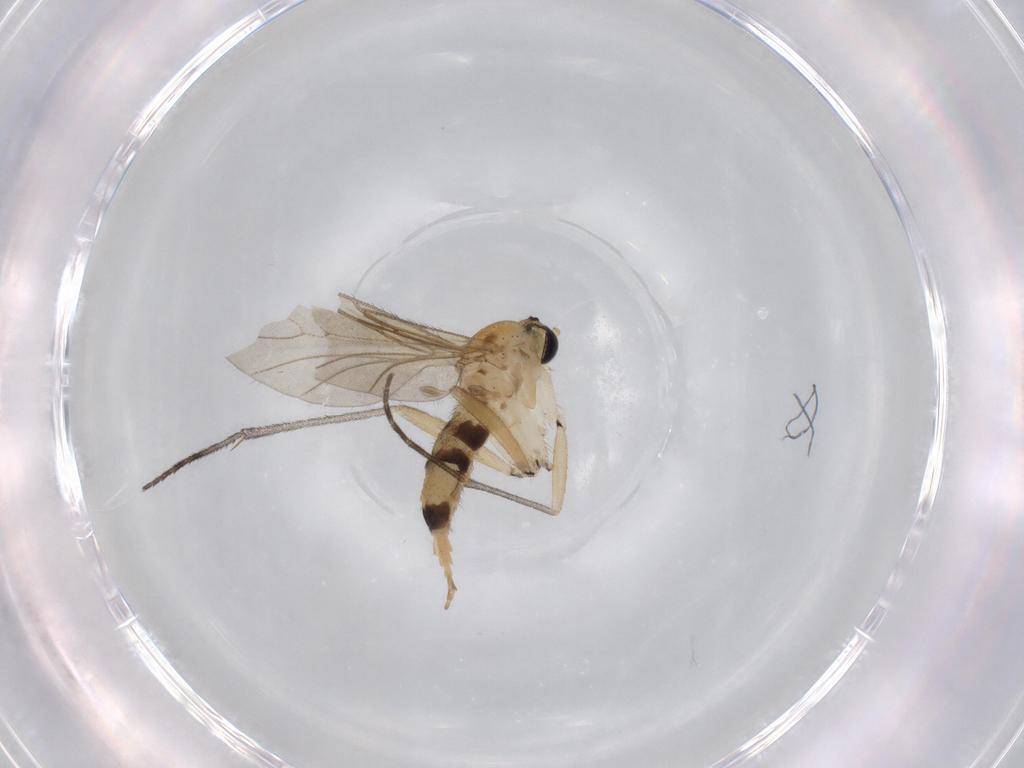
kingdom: Animalia
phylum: Arthropoda
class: Insecta
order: Diptera
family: Sciaridae
